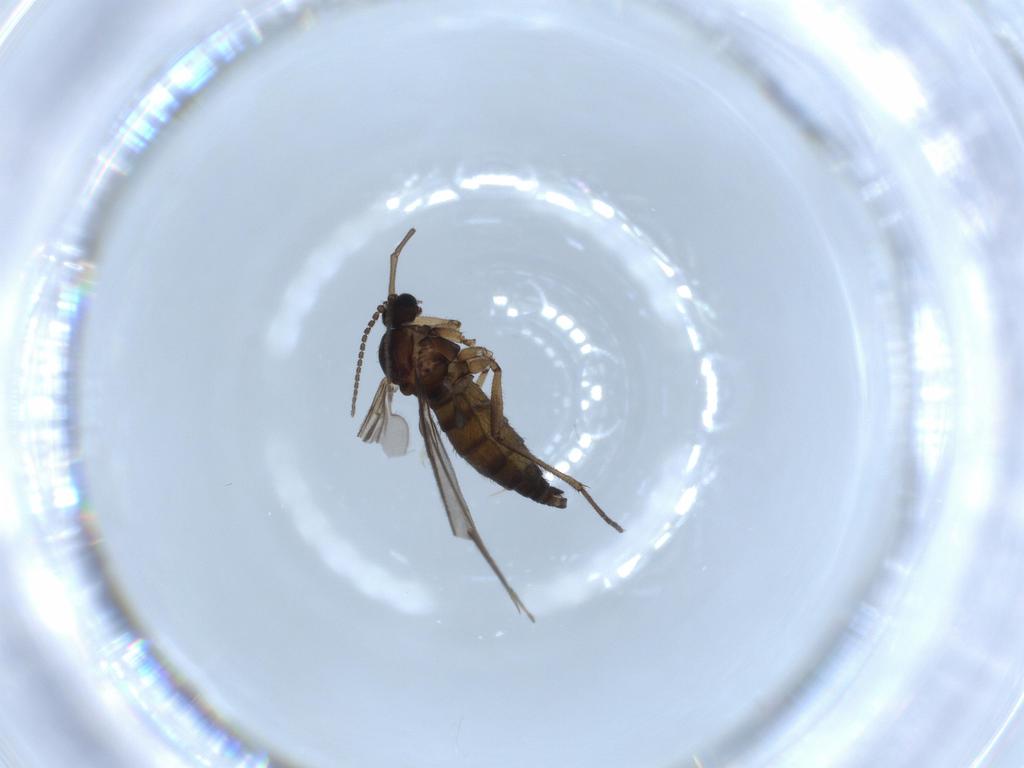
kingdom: Animalia
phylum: Arthropoda
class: Insecta
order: Diptera
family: Sciaridae
